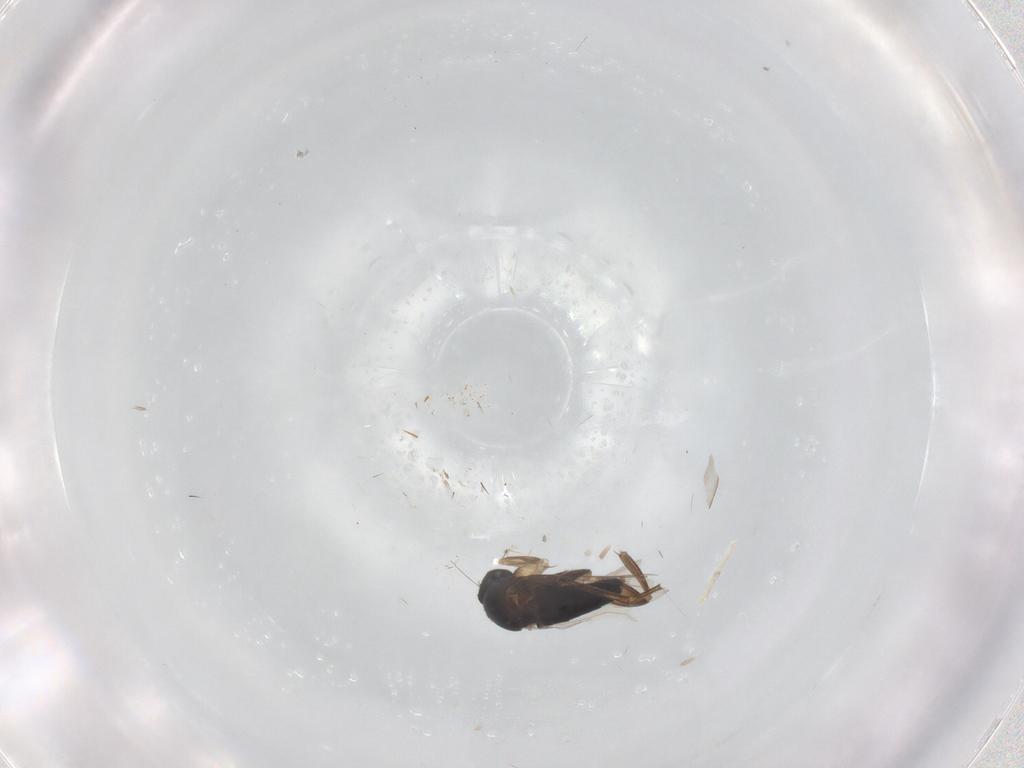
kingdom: Animalia
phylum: Arthropoda
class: Insecta
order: Diptera
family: Phoridae
